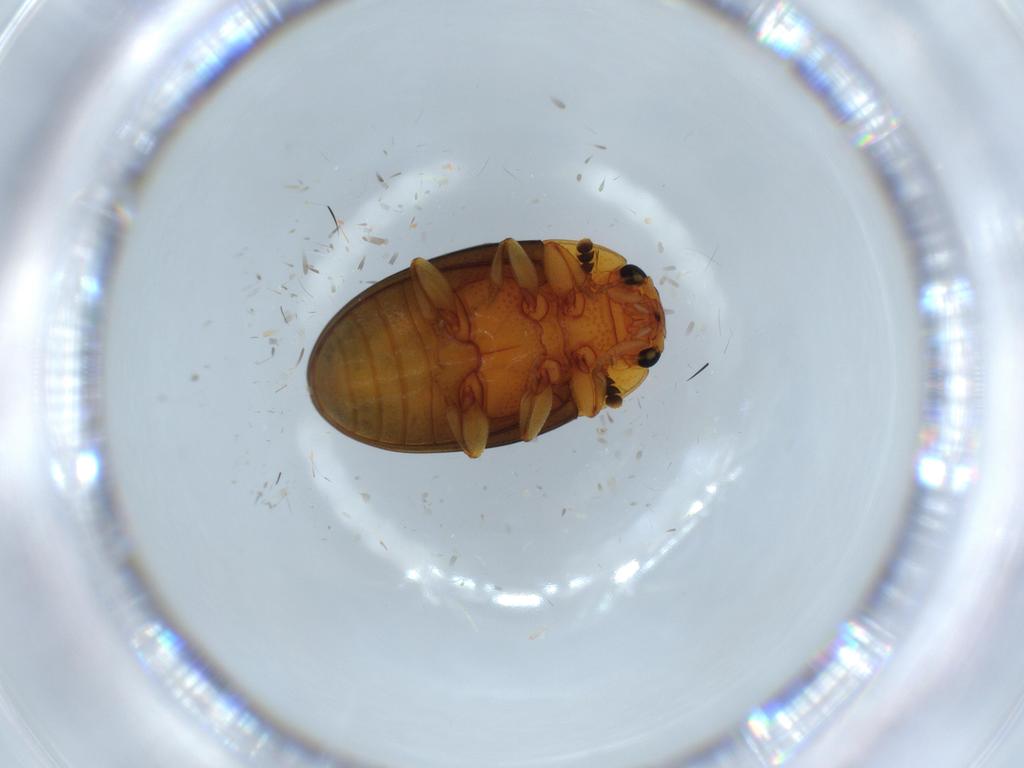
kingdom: Animalia
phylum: Arthropoda
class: Insecta
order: Coleoptera
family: Erotylidae
